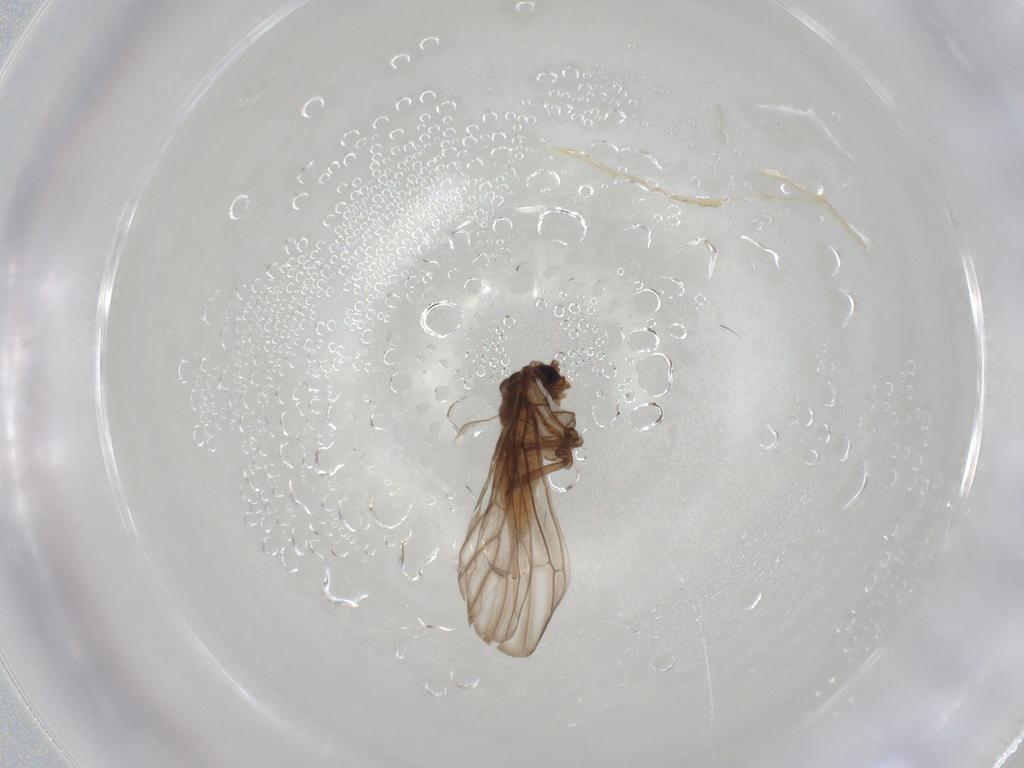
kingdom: Animalia
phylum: Arthropoda
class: Insecta
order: Neuroptera
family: Coniopterygidae
